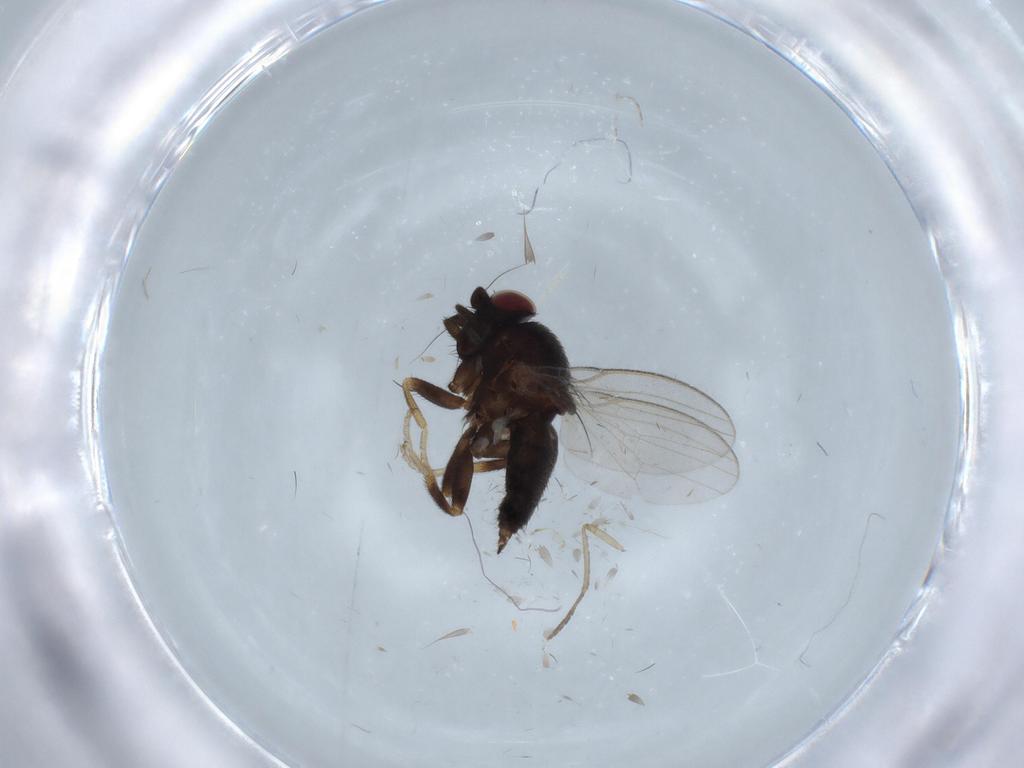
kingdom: Animalia
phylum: Arthropoda
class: Insecta
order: Diptera
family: Milichiidae
